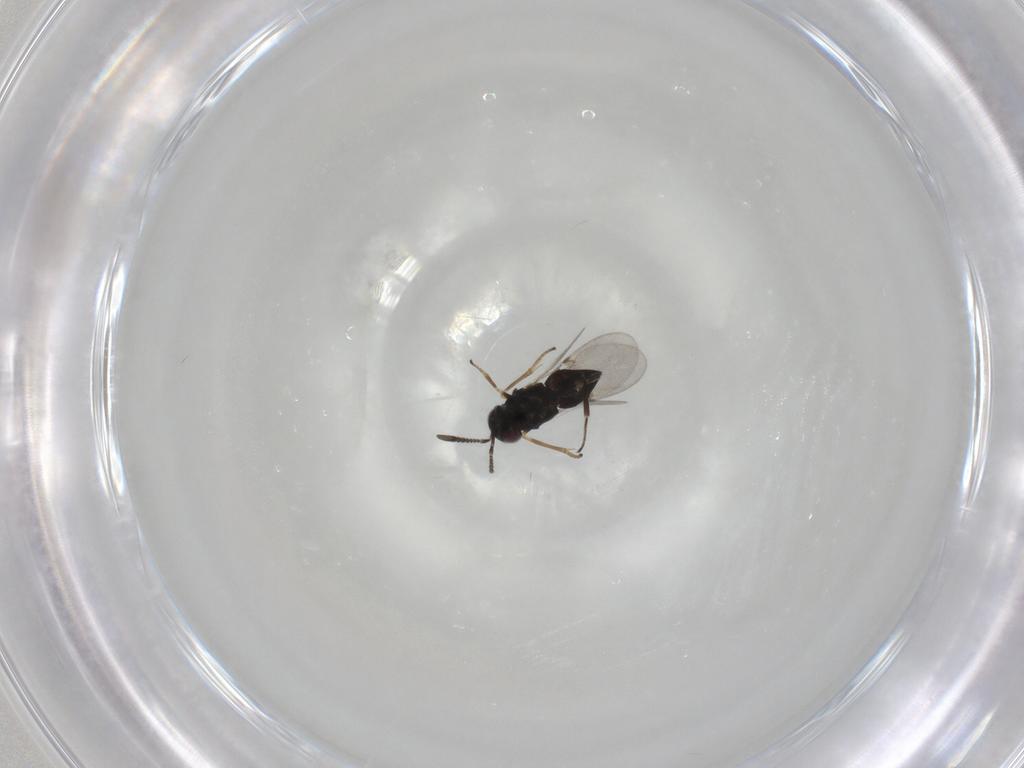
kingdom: Animalia
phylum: Arthropoda
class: Insecta
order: Hymenoptera
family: Encyrtidae
